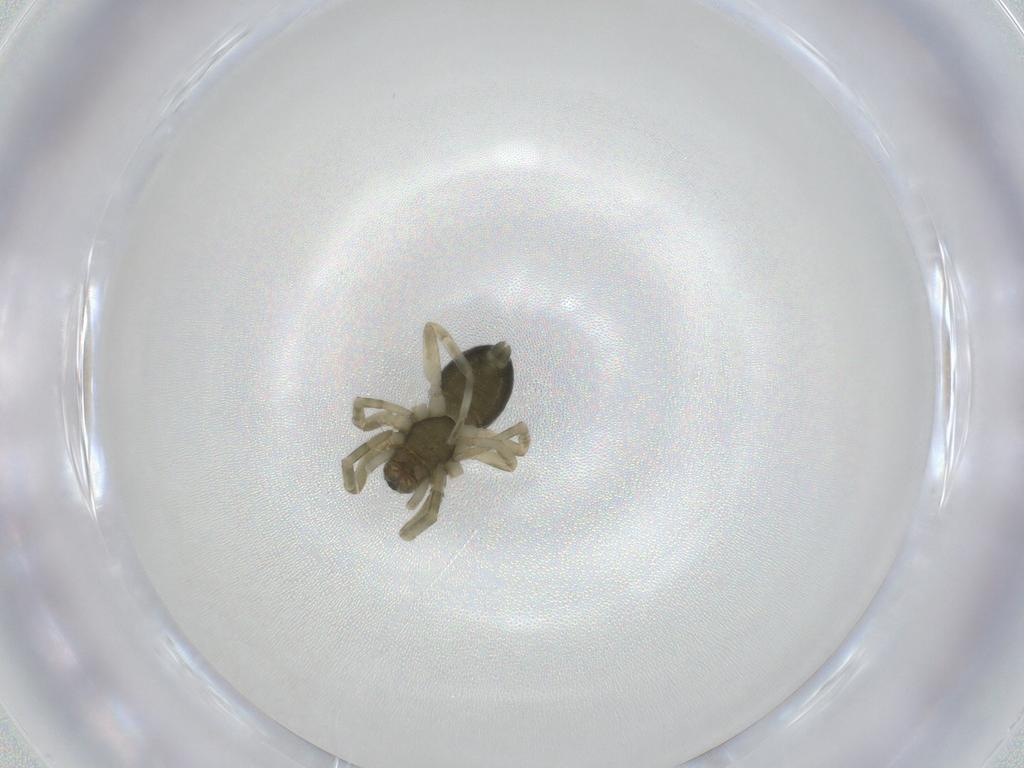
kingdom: Animalia
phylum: Arthropoda
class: Arachnida
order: Araneae
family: Trachelidae
